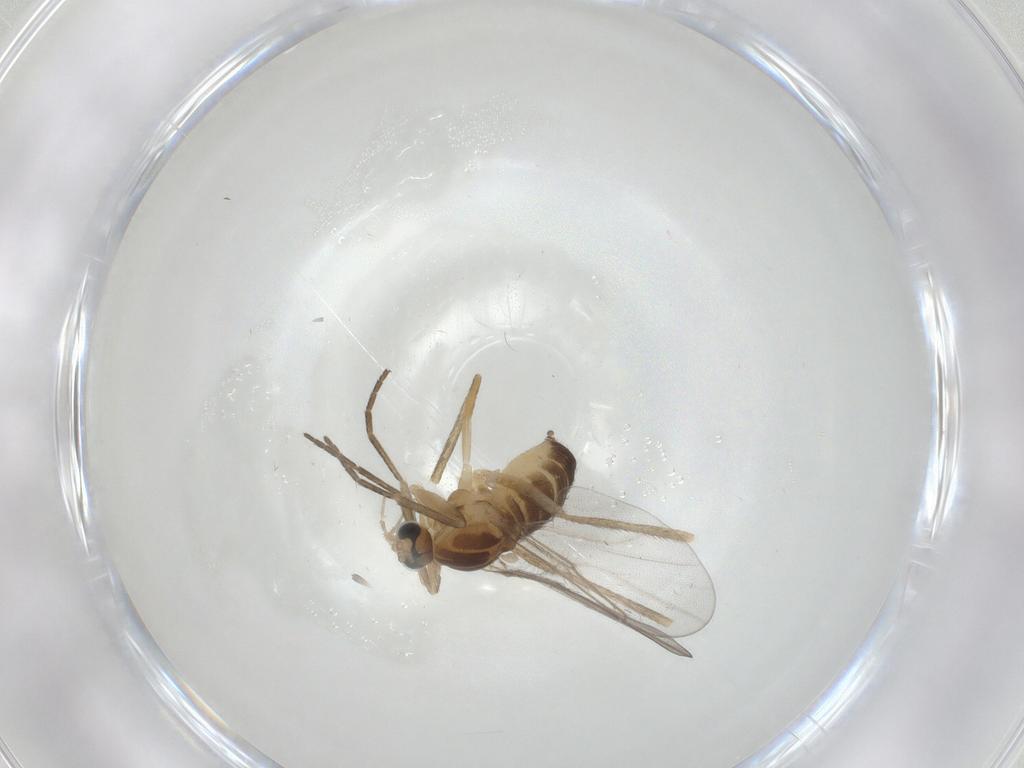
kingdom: Animalia
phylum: Arthropoda
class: Insecta
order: Diptera
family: Cecidomyiidae
